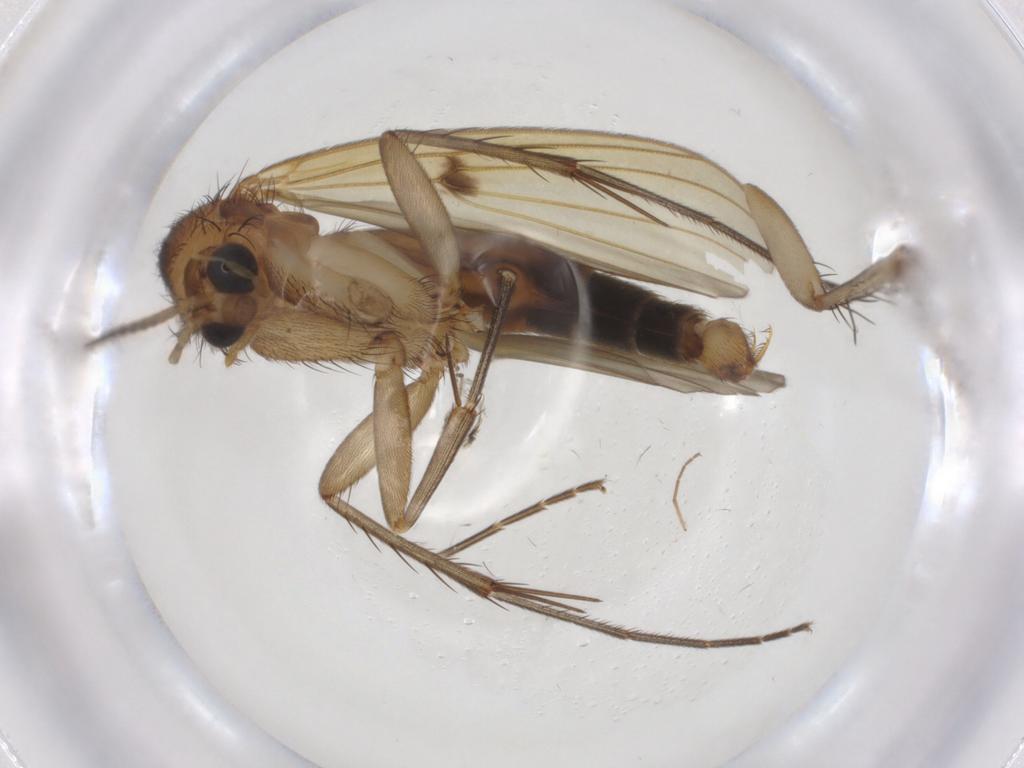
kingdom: Animalia
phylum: Arthropoda
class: Insecta
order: Diptera
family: Cecidomyiidae
